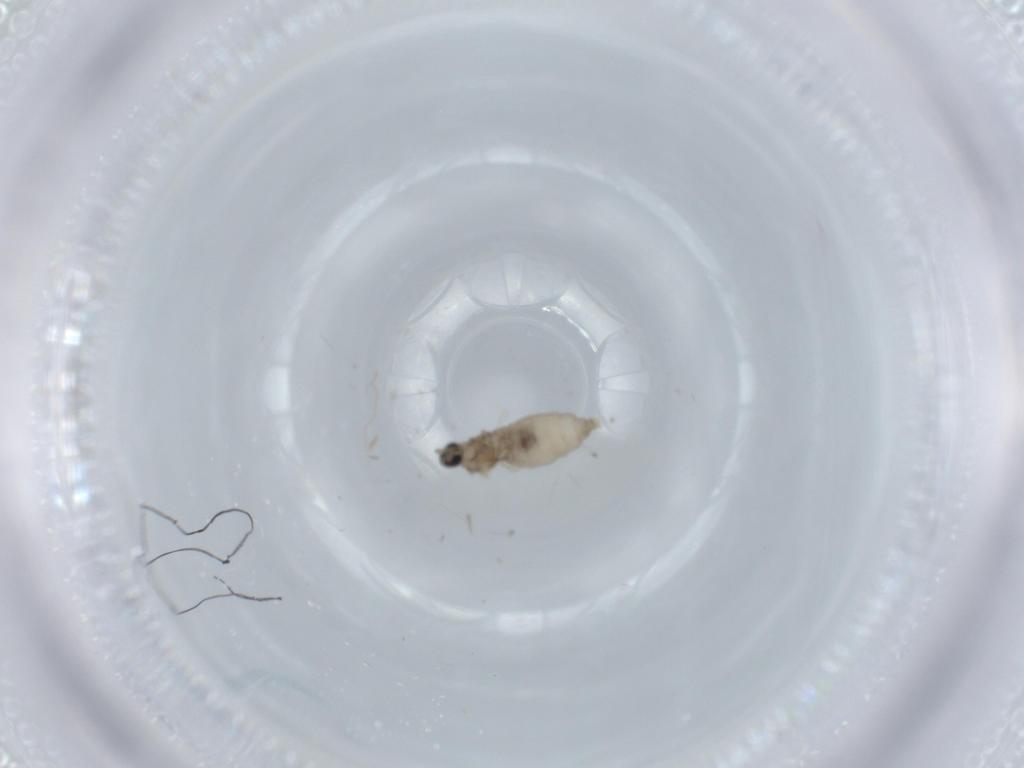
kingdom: Animalia
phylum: Arthropoda
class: Insecta
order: Diptera
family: Cecidomyiidae
